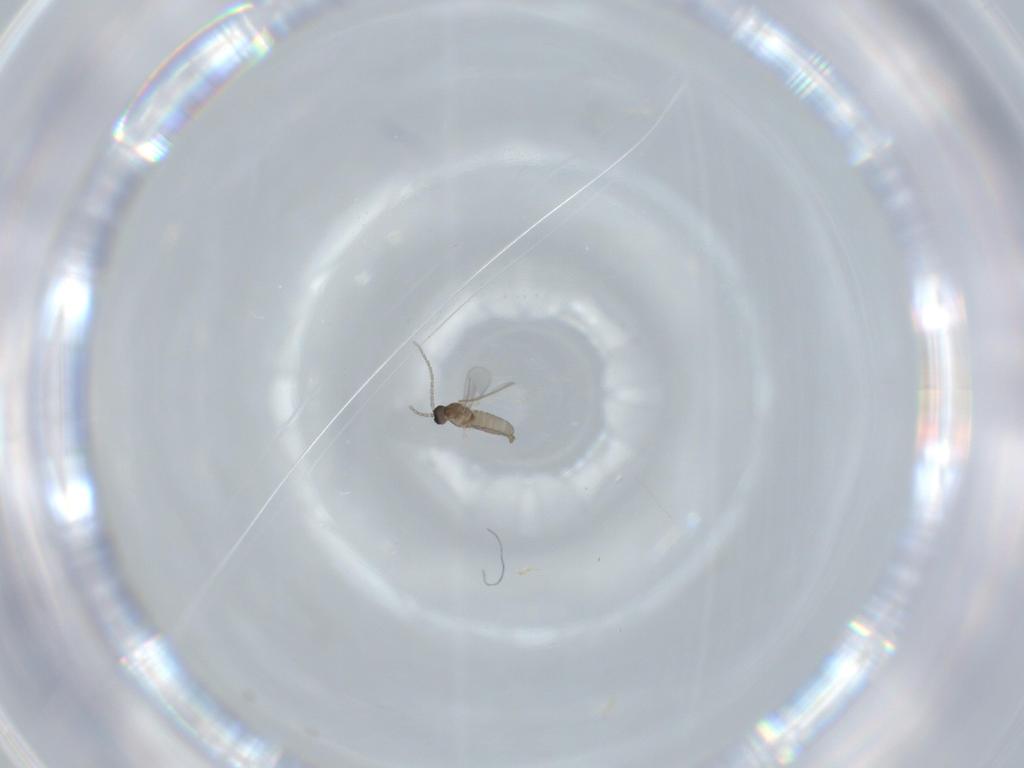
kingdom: Animalia
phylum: Arthropoda
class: Insecta
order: Diptera
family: Cecidomyiidae
